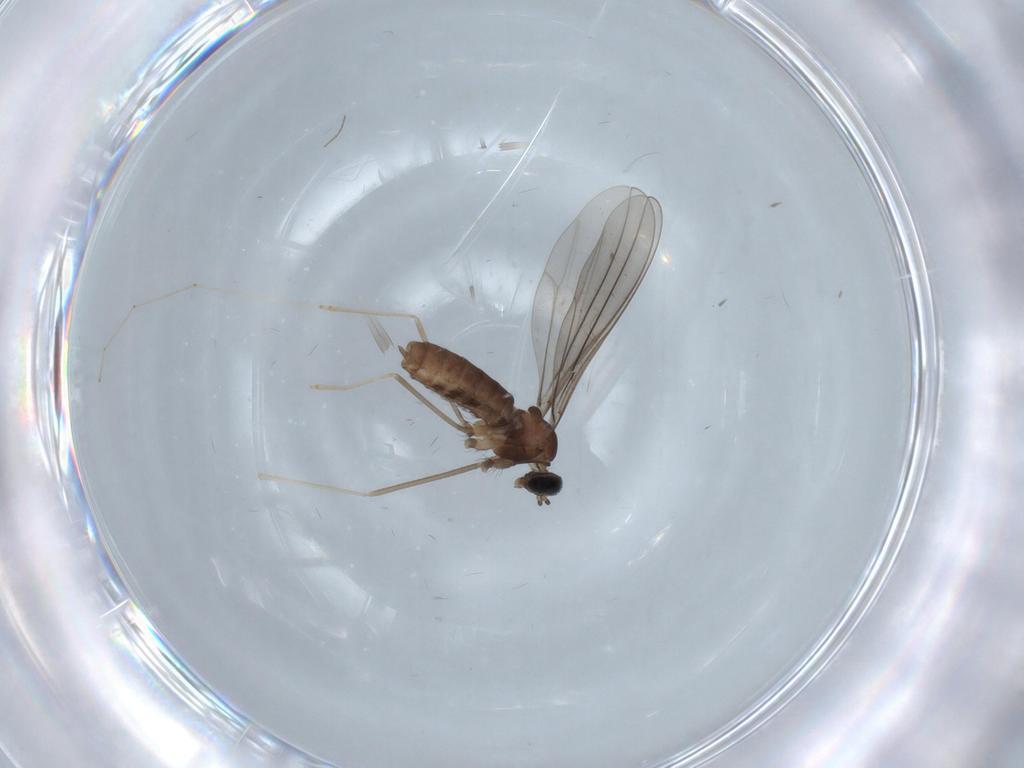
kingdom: Animalia
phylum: Arthropoda
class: Insecta
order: Diptera
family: Cecidomyiidae
